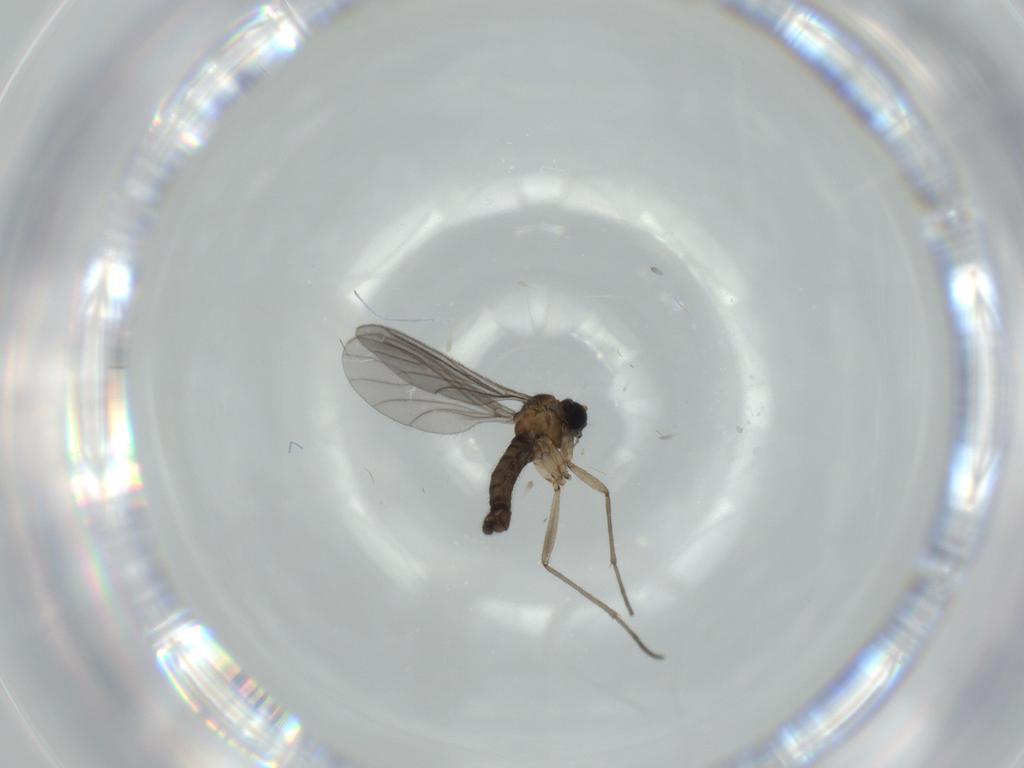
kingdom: Animalia
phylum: Arthropoda
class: Insecta
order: Diptera
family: Sciaridae
